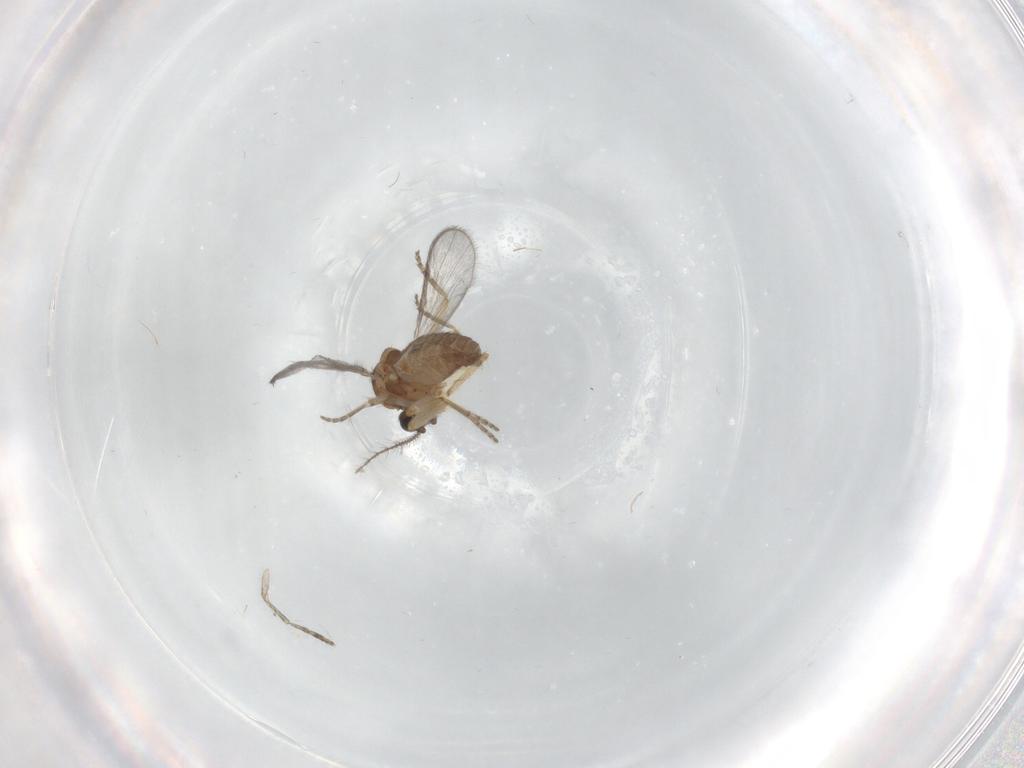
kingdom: Animalia
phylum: Arthropoda
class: Insecta
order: Diptera
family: Ceratopogonidae
